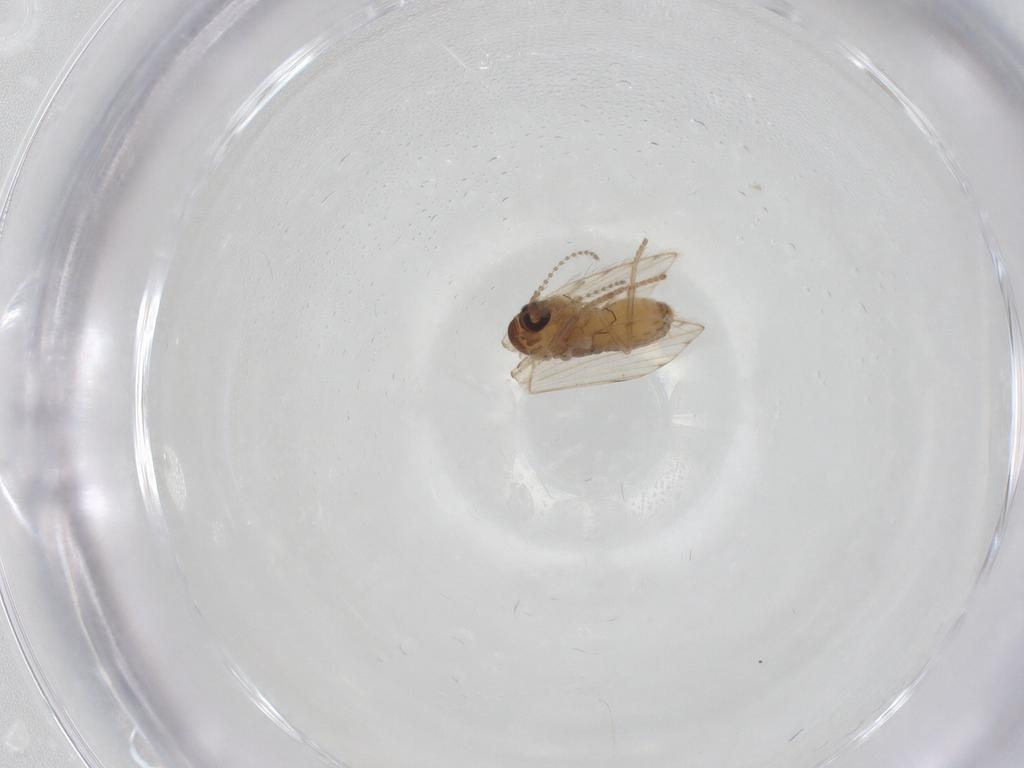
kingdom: Animalia
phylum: Arthropoda
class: Insecta
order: Diptera
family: Psychodidae
